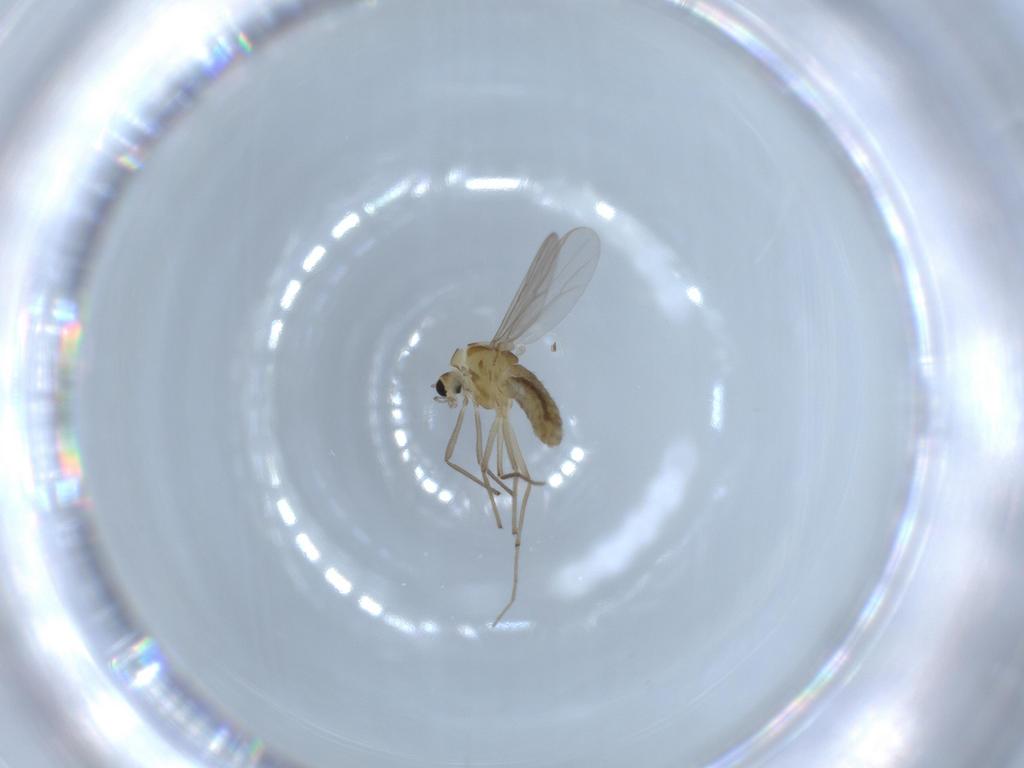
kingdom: Animalia
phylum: Arthropoda
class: Insecta
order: Diptera
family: Chironomidae
